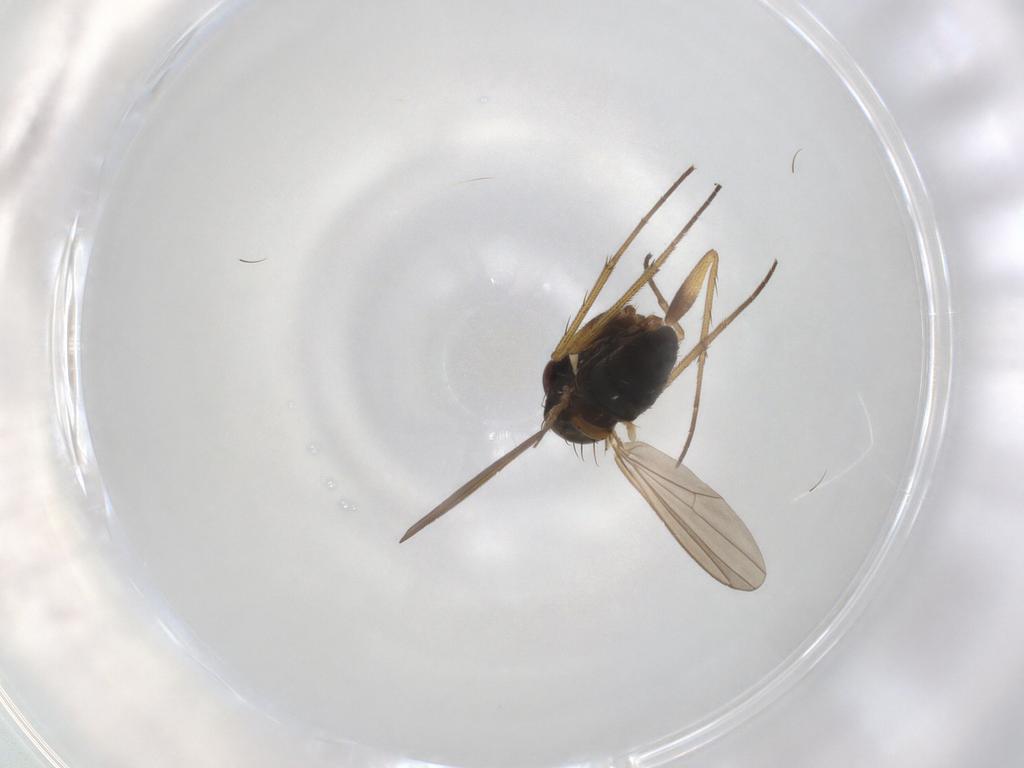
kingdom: Animalia
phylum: Arthropoda
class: Insecta
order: Diptera
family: Dolichopodidae
